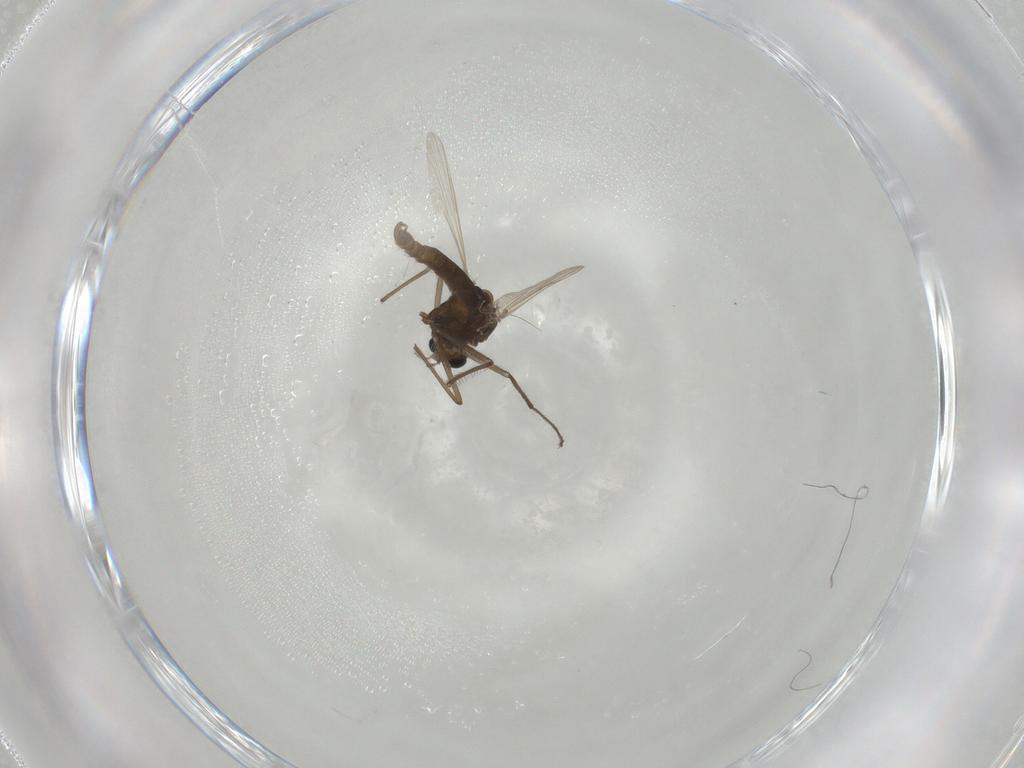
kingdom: Animalia
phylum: Arthropoda
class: Insecta
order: Diptera
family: Chironomidae
